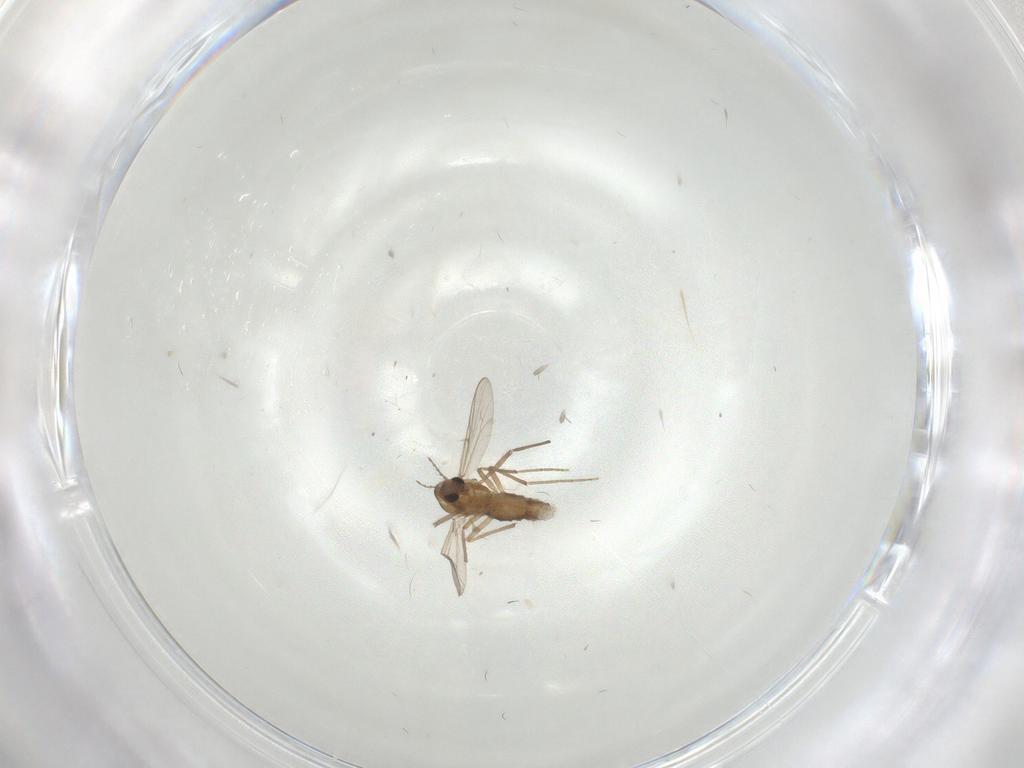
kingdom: Animalia
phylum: Arthropoda
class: Insecta
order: Diptera
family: Chironomidae
